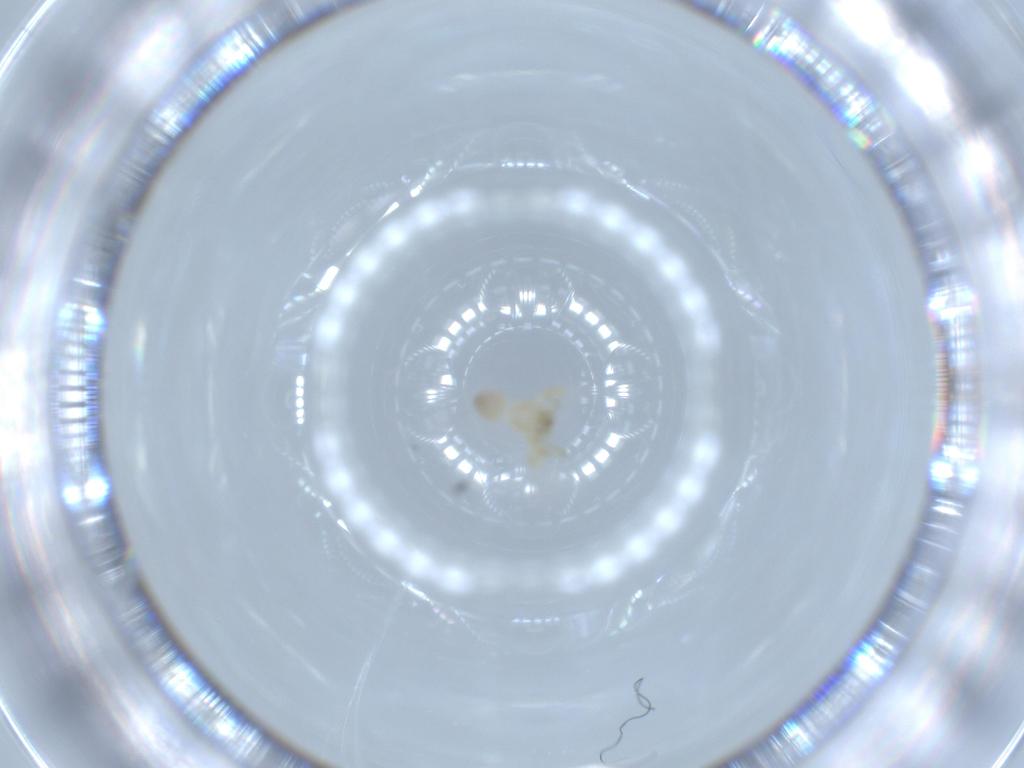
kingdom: Animalia
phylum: Arthropoda
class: Arachnida
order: Araneae
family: Oonopidae
